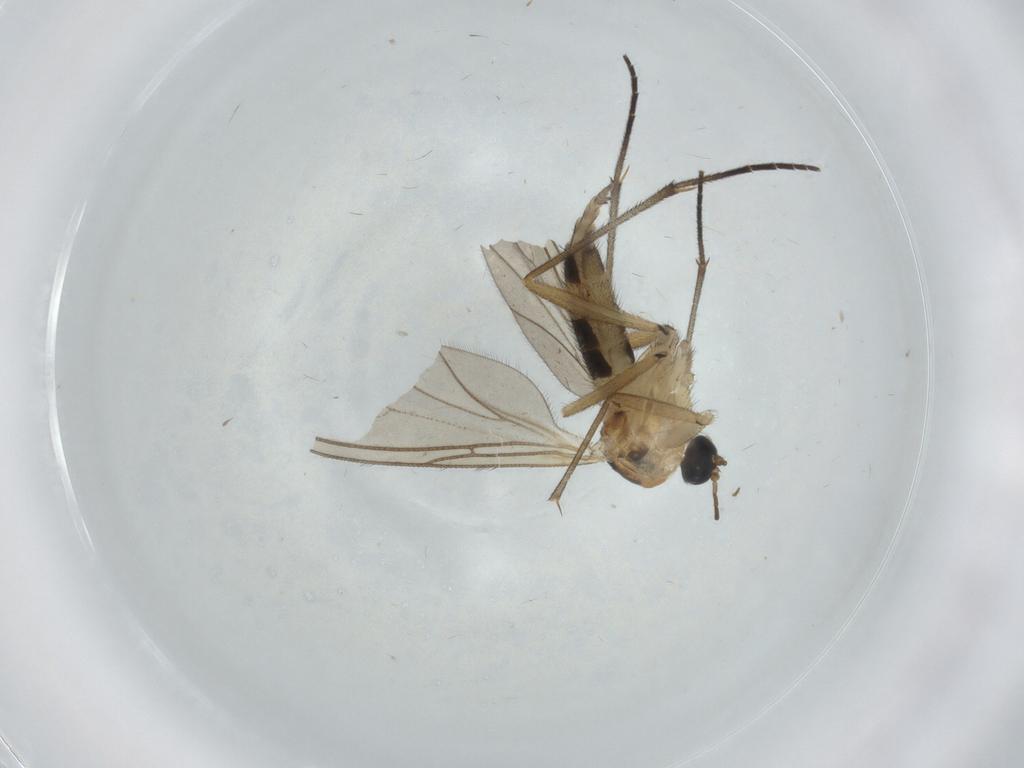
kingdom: Animalia
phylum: Arthropoda
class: Insecta
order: Diptera
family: Sciaridae
